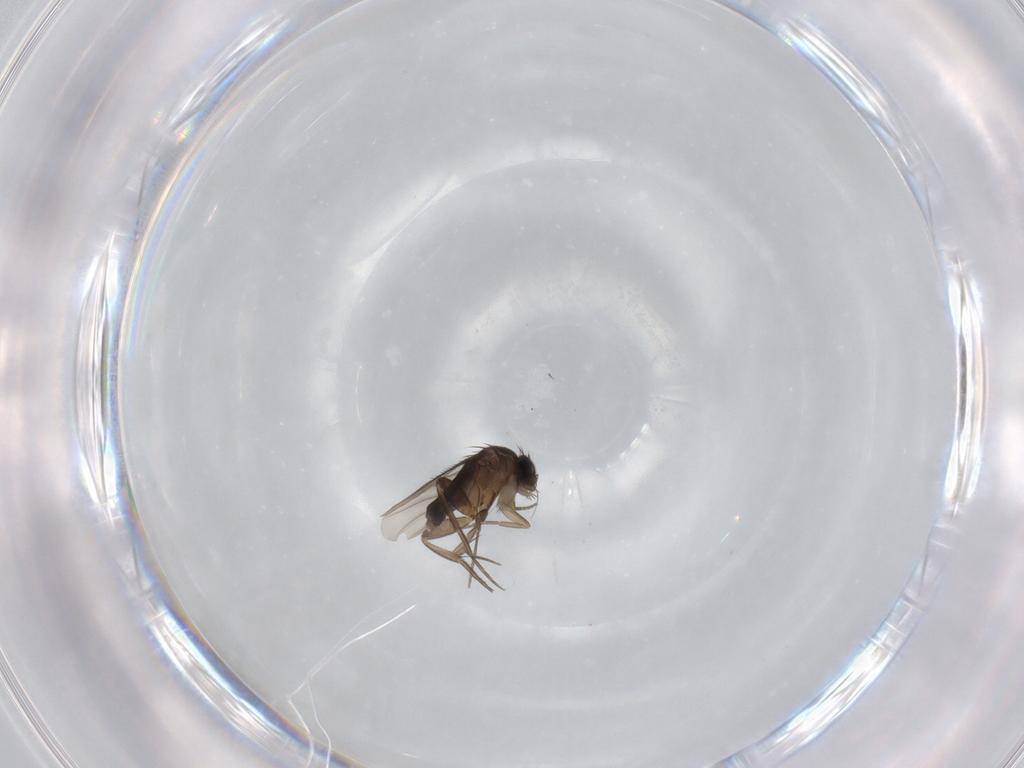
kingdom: Animalia
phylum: Arthropoda
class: Insecta
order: Diptera
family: Phoridae
